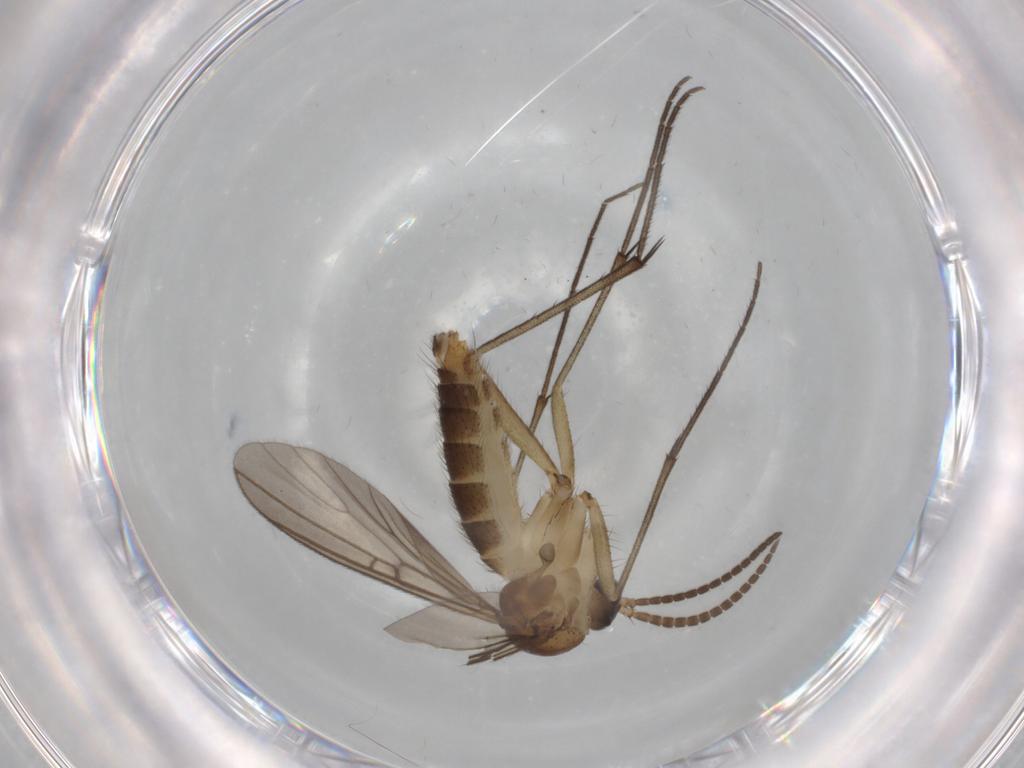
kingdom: Animalia
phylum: Arthropoda
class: Insecta
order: Diptera
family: Mycetophilidae
